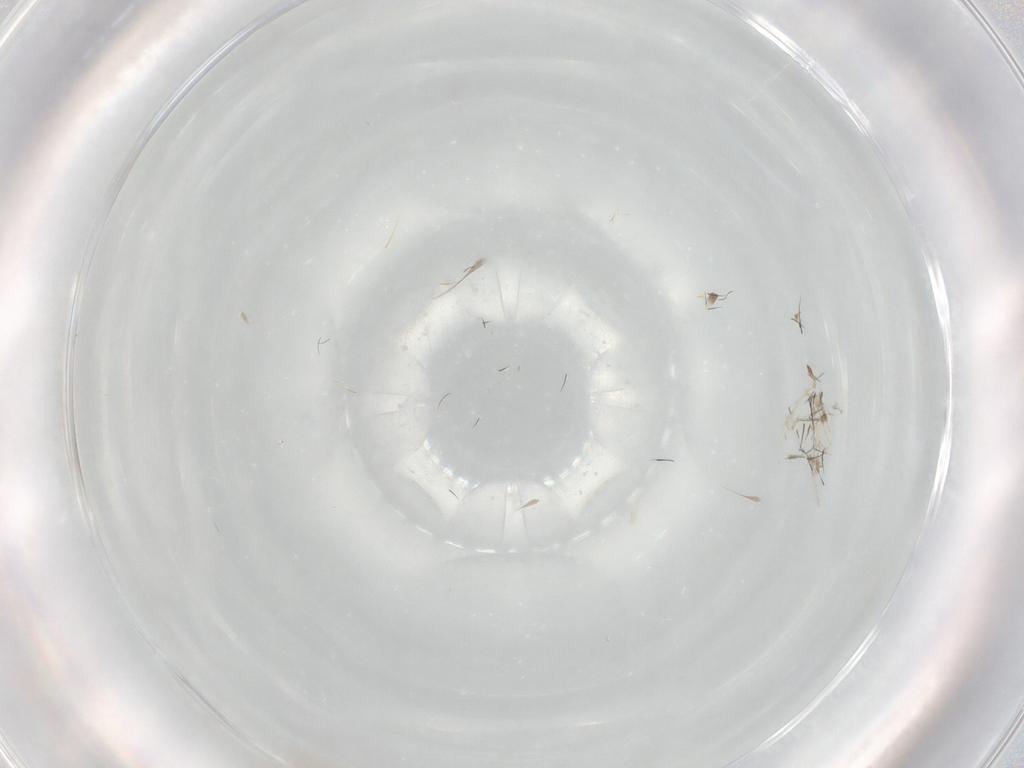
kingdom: Animalia
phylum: Arthropoda
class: Insecta
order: Diptera
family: Cecidomyiidae
